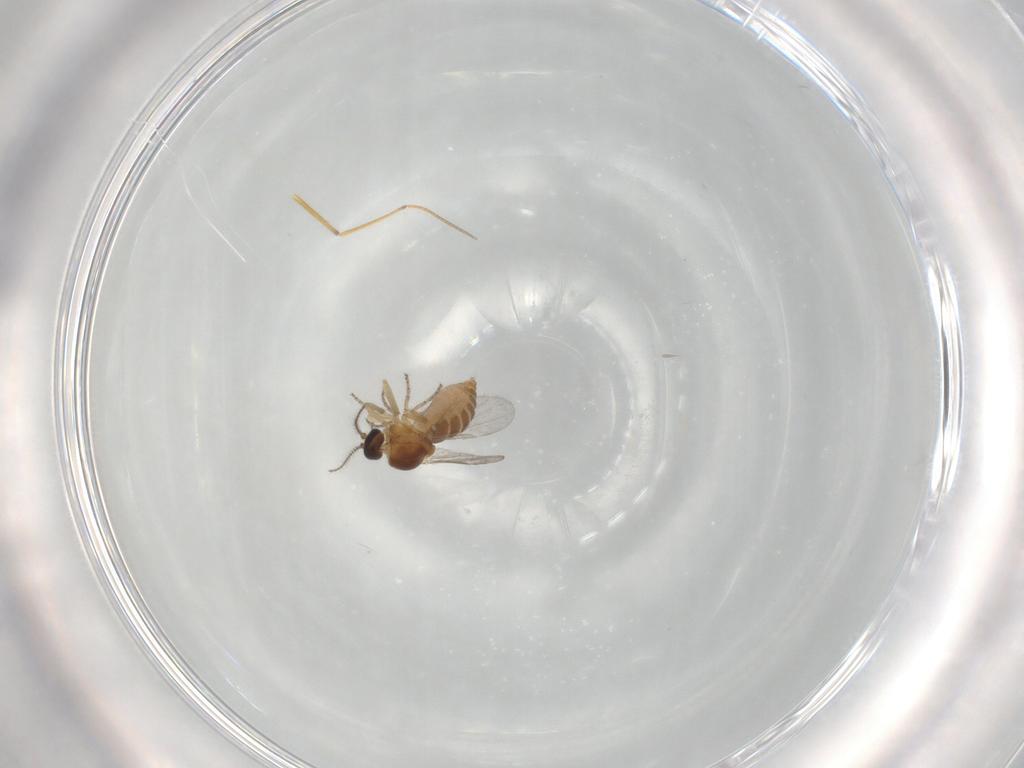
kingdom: Animalia
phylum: Arthropoda
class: Insecta
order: Diptera
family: Ceratopogonidae
